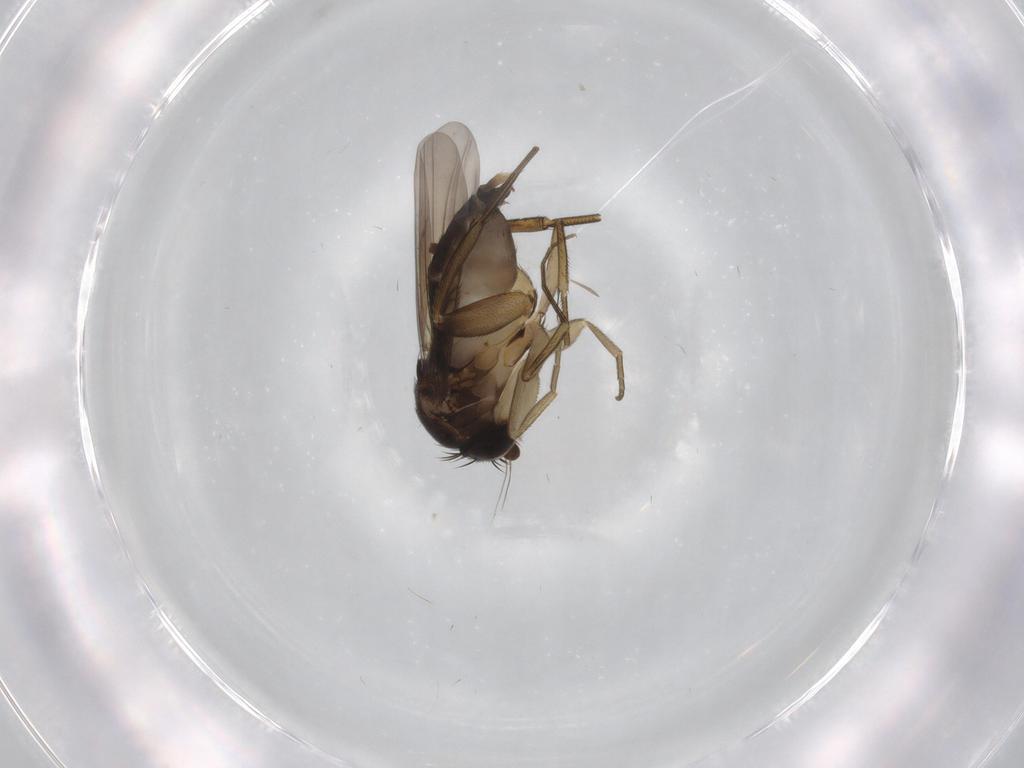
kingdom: Animalia
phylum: Arthropoda
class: Insecta
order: Diptera
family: Phoridae
